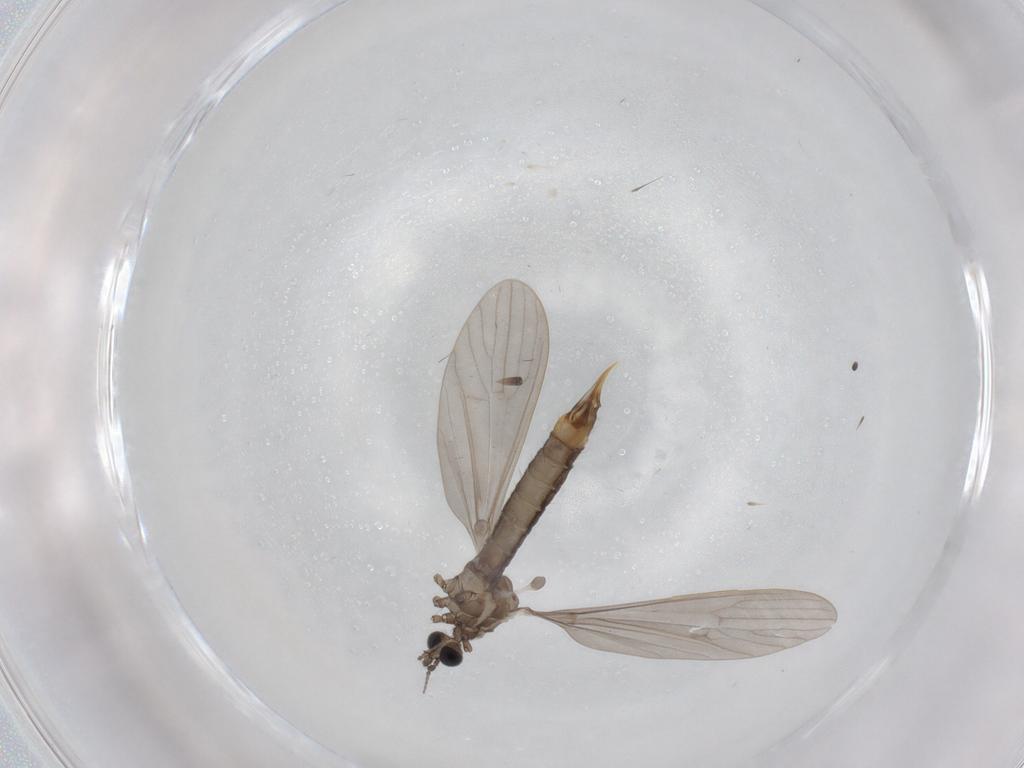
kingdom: Animalia
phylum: Arthropoda
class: Insecta
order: Diptera
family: Limoniidae
